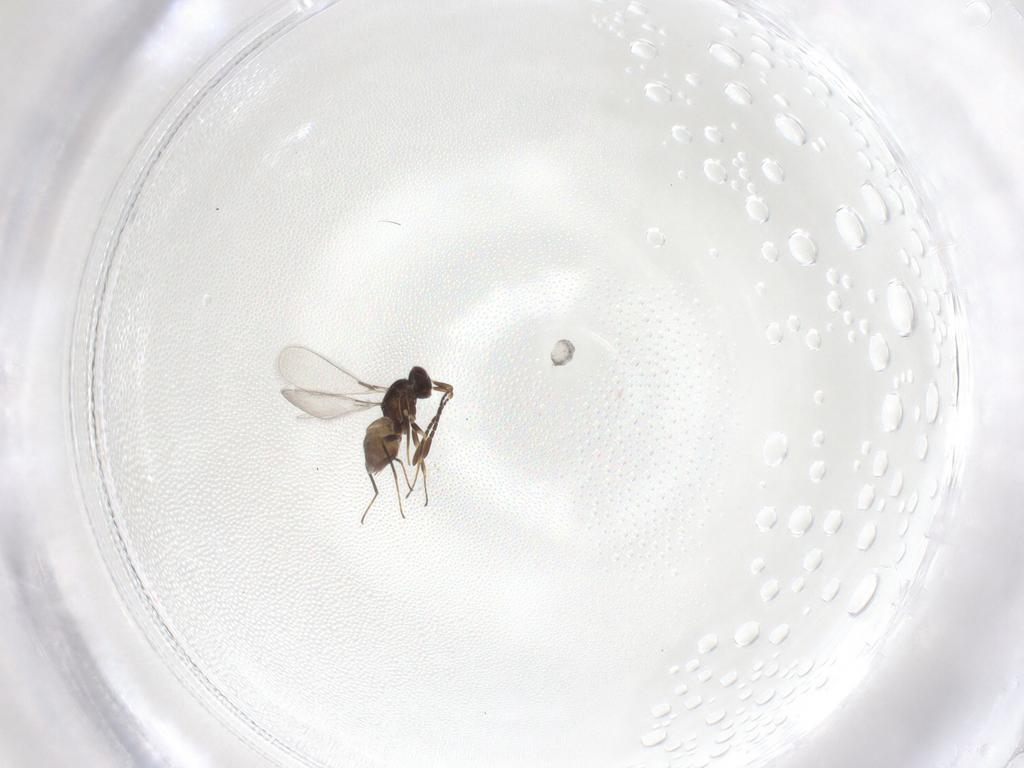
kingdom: Animalia
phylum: Arthropoda
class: Insecta
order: Hymenoptera
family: Mymaridae
